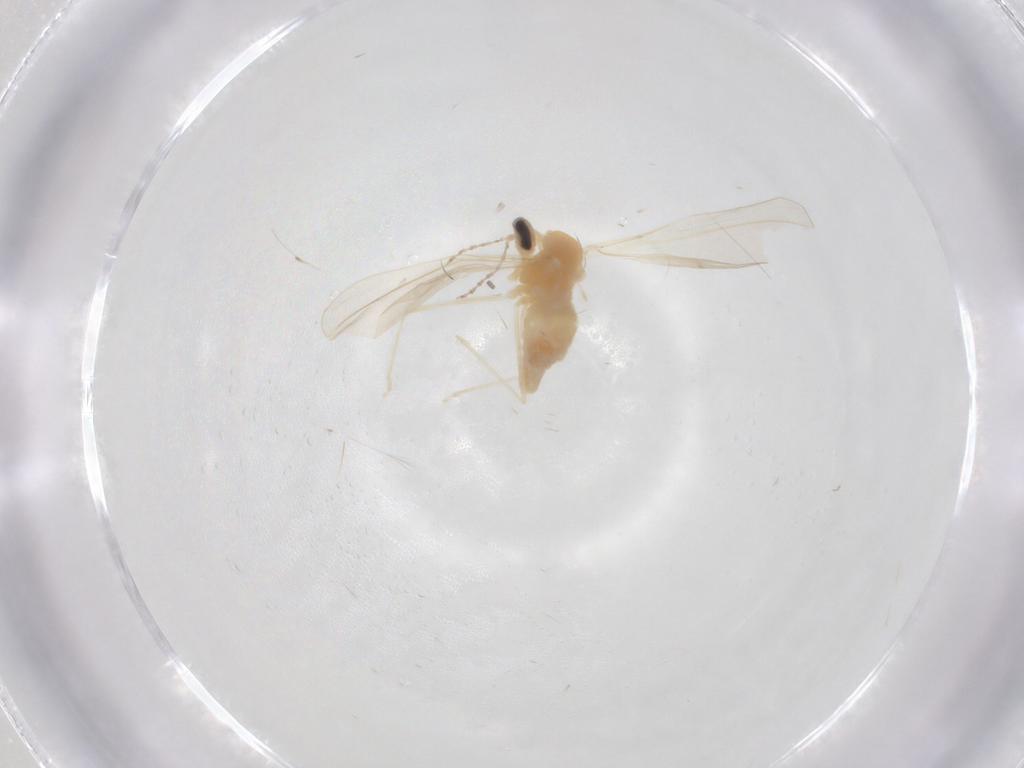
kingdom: Animalia
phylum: Arthropoda
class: Insecta
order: Diptera
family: Cecidomyiidae
